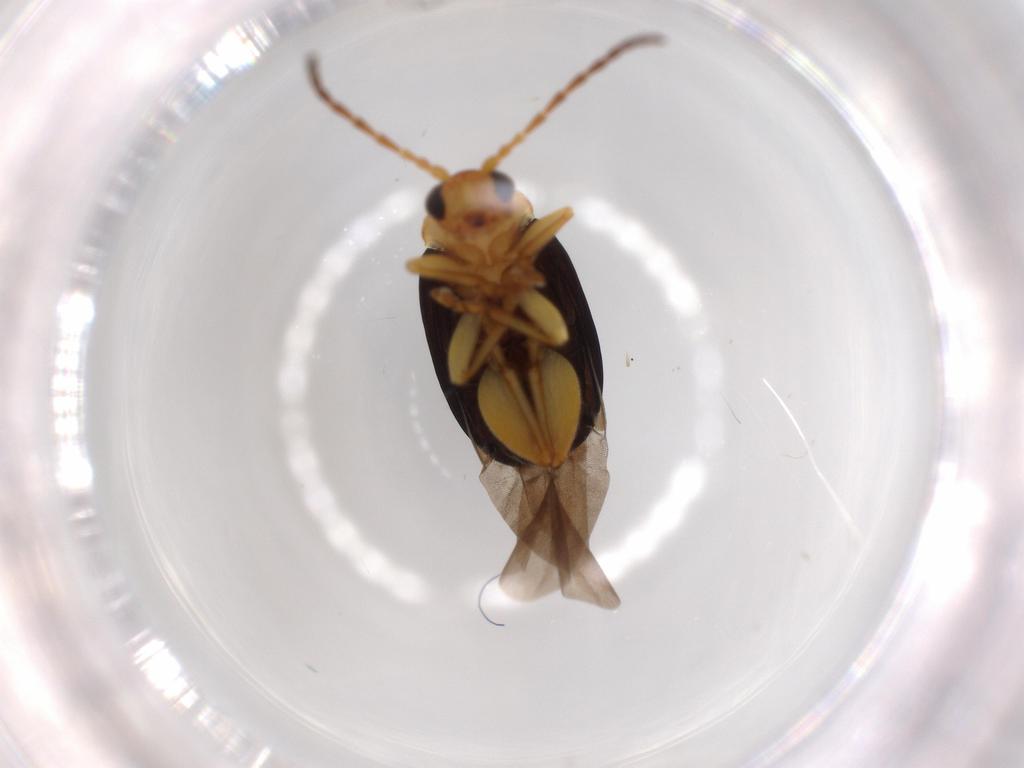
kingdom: Animalia
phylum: Arthropoda
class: Insecta
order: Coleoptera
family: Chrysomelidae
